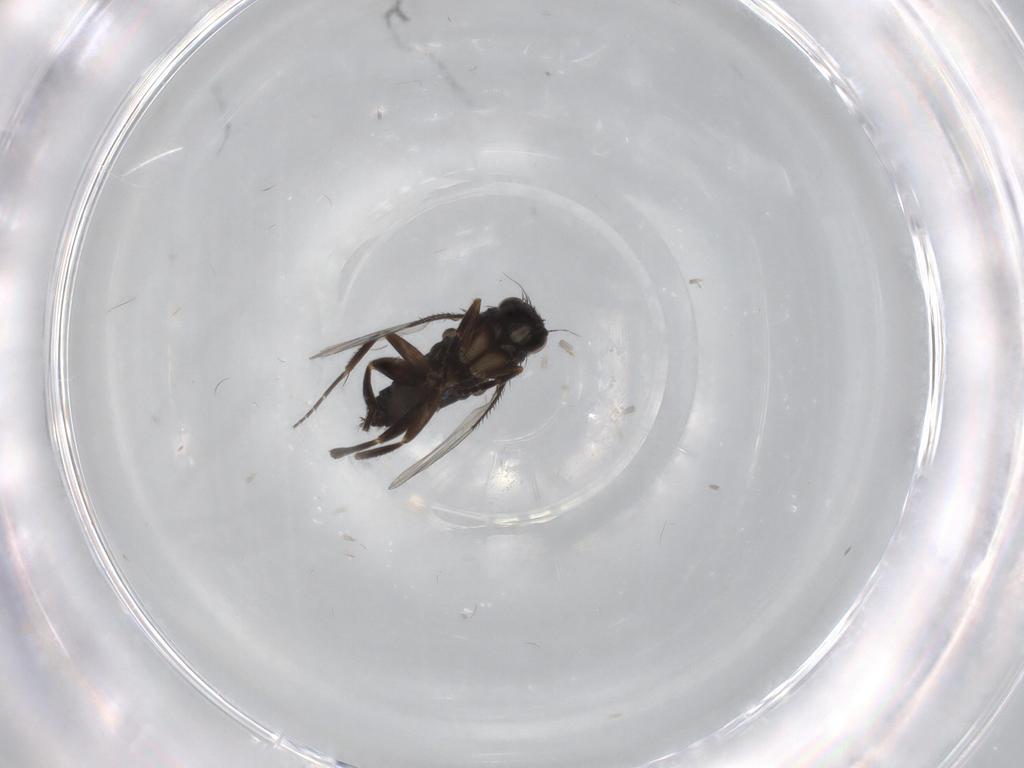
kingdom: Animalia
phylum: Arthropoda
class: Insecta
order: Diptera
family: Phoridae
